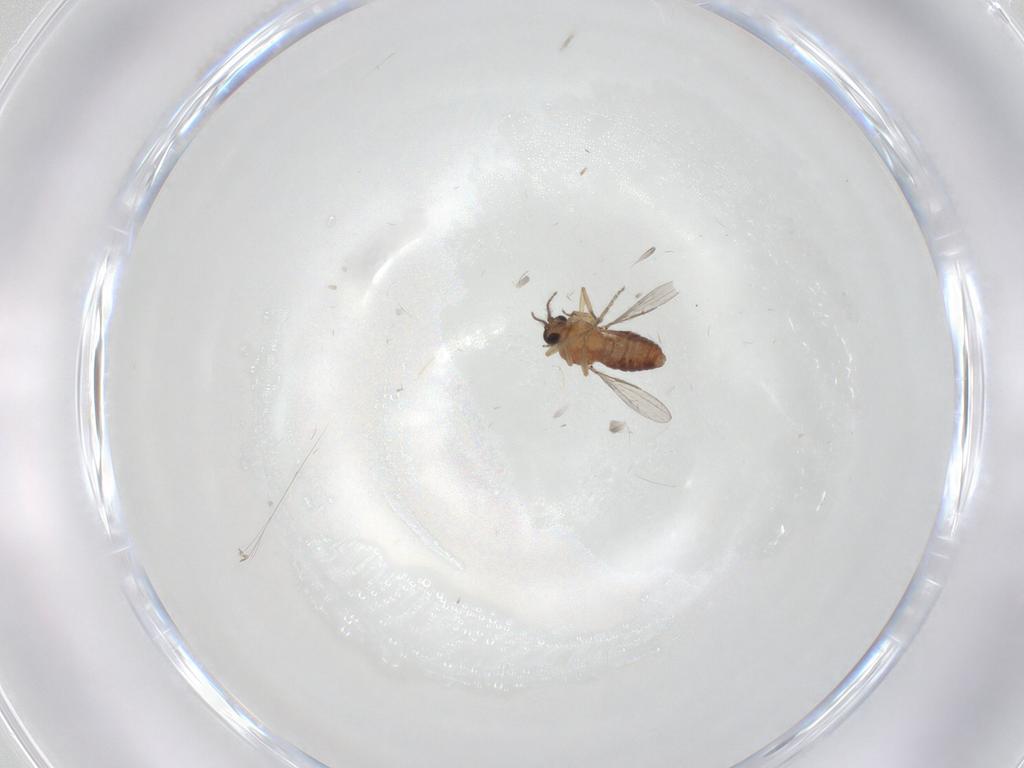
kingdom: Animalia
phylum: Arthropoda
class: Insecta
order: Diptera
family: Ceratopogonidae
